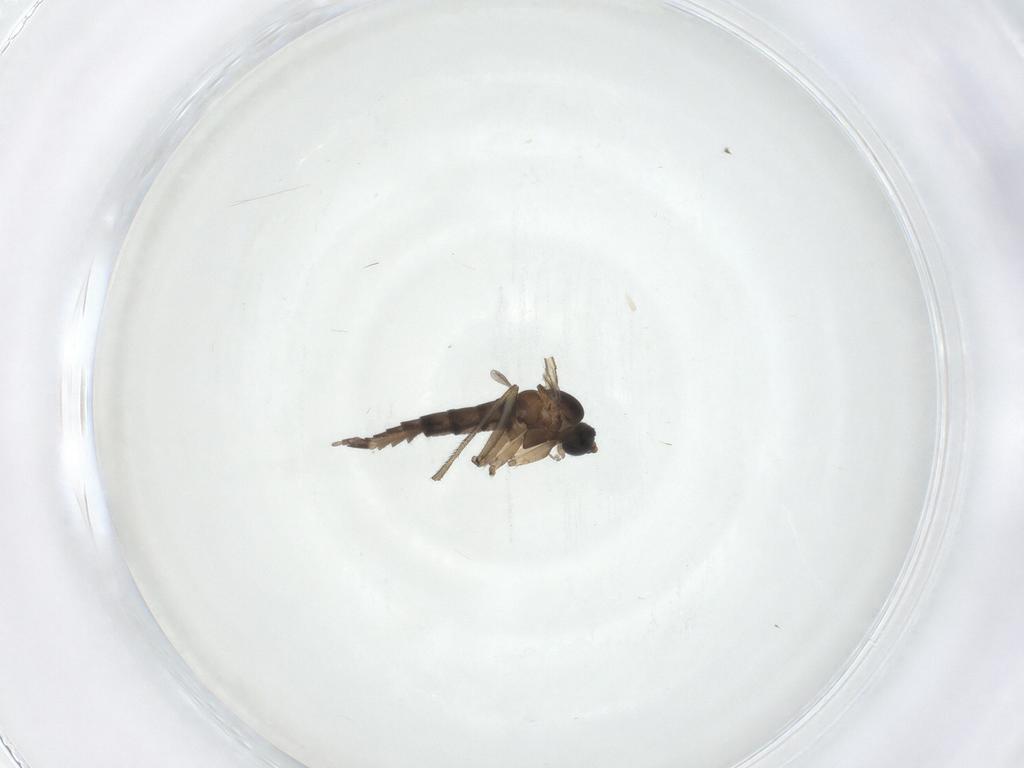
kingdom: Animalia
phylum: Arthropoda
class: Insecta
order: Diptera
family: Sciaridae
